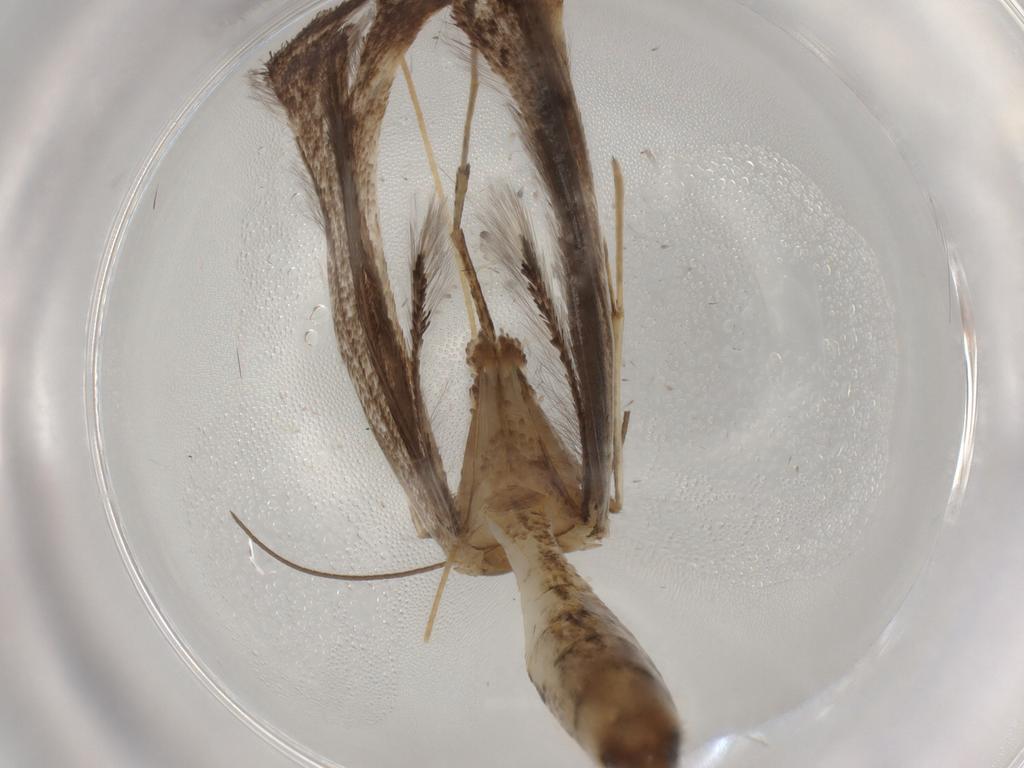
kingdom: Animalia
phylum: Arthropoda
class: Insecta
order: Lepidoptera
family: Pterophoridae
